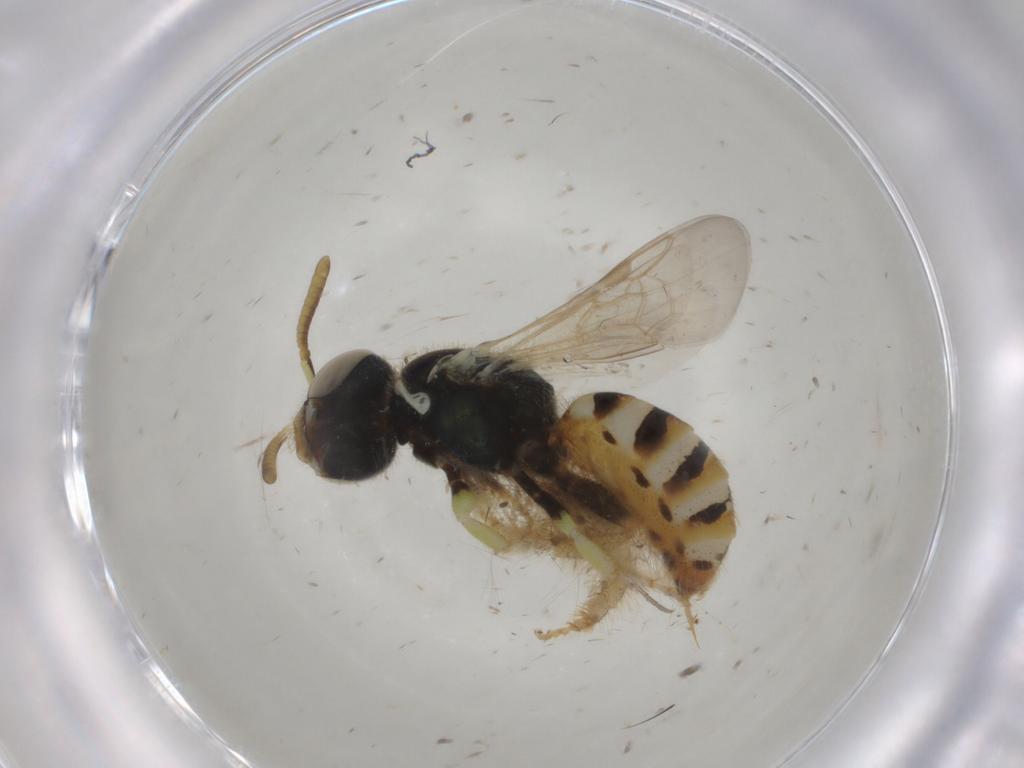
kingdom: Animalia
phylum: Arthropoda
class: Insecta
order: Hymenoptera
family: Halictidae
